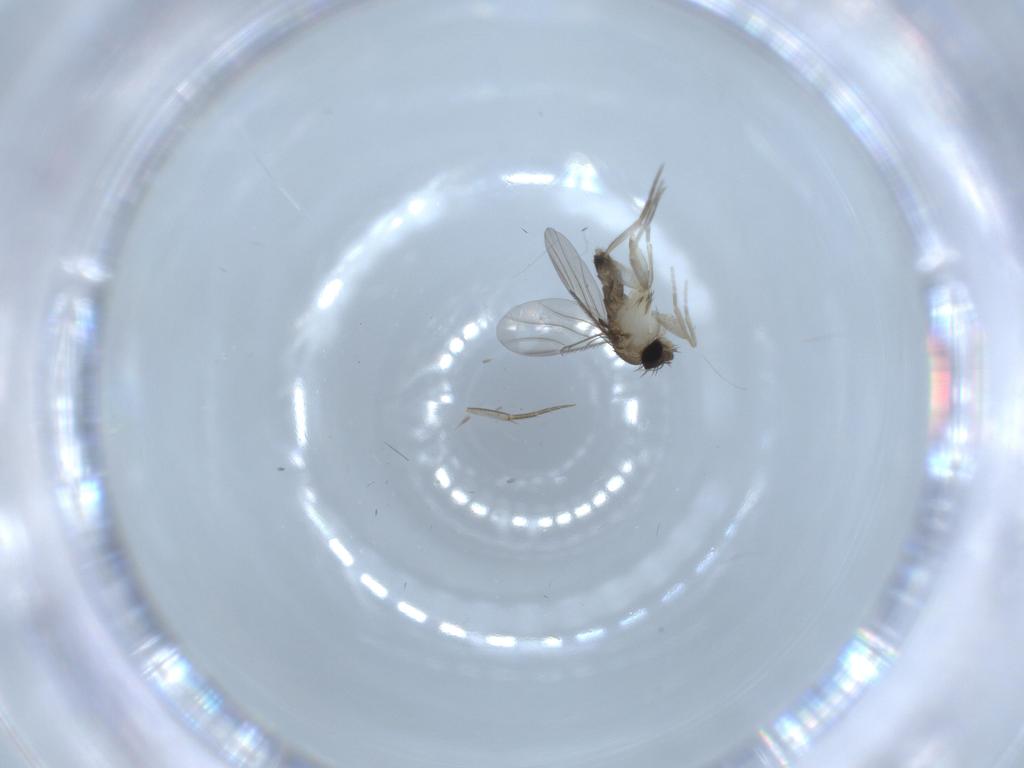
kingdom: Animalia
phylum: Arthropoda
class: Insecta
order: Diptera
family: Phoridae
